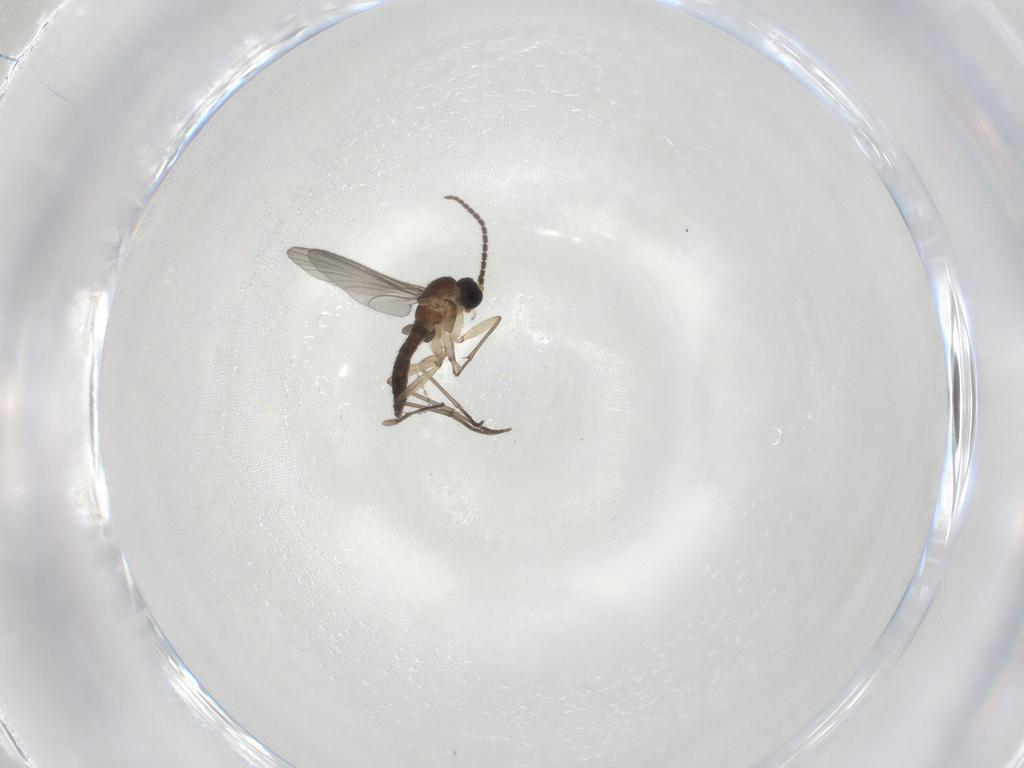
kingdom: Animalia
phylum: Arthropoda
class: Insecta
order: Diptera
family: Sciaridae
